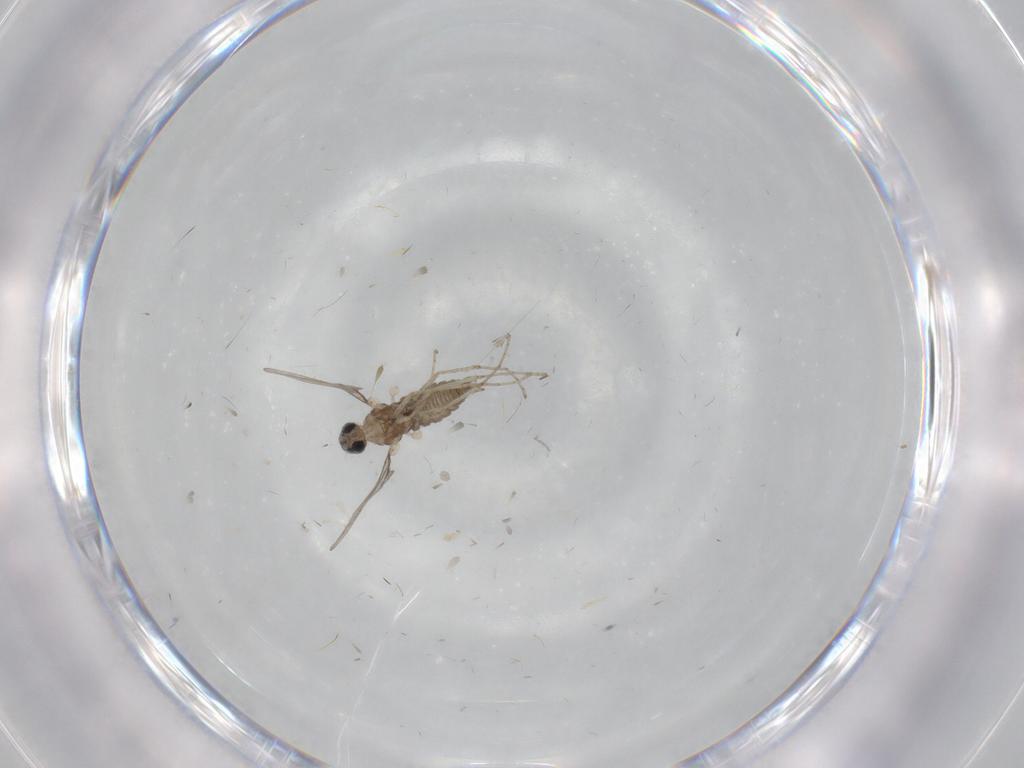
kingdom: Animalia
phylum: Arthropoda
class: Insecta
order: Diptera
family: Cecidomyiidae
